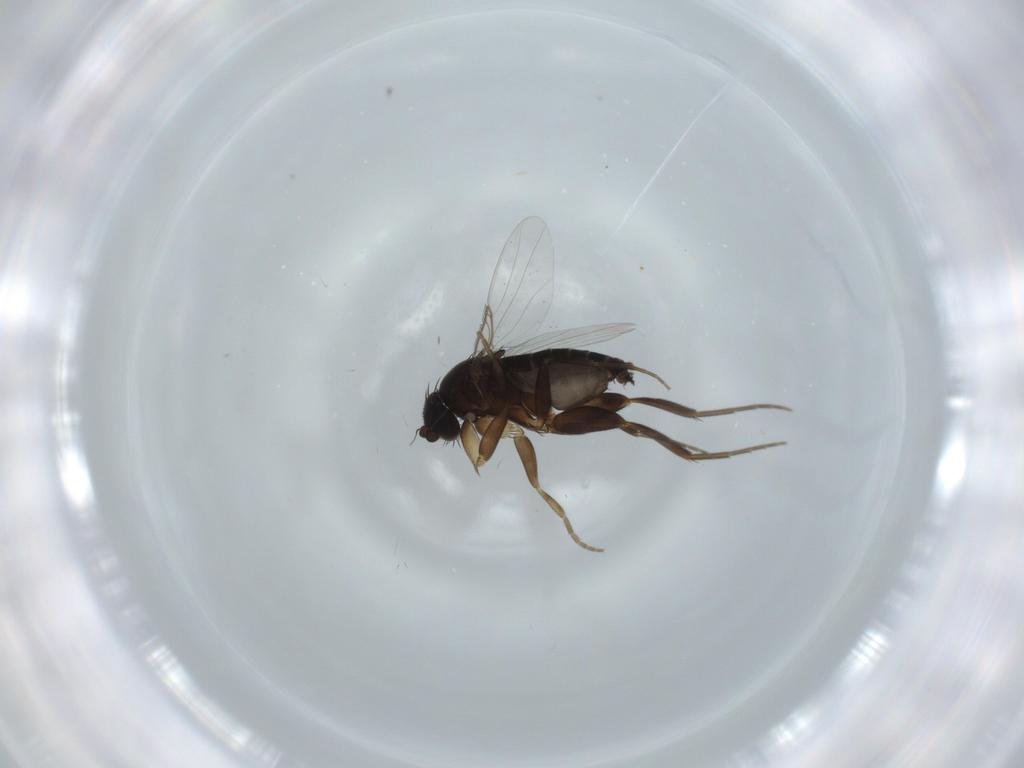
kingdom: Animalia
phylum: Arthropoda
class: Insecta
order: Diptera
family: Phoridae
